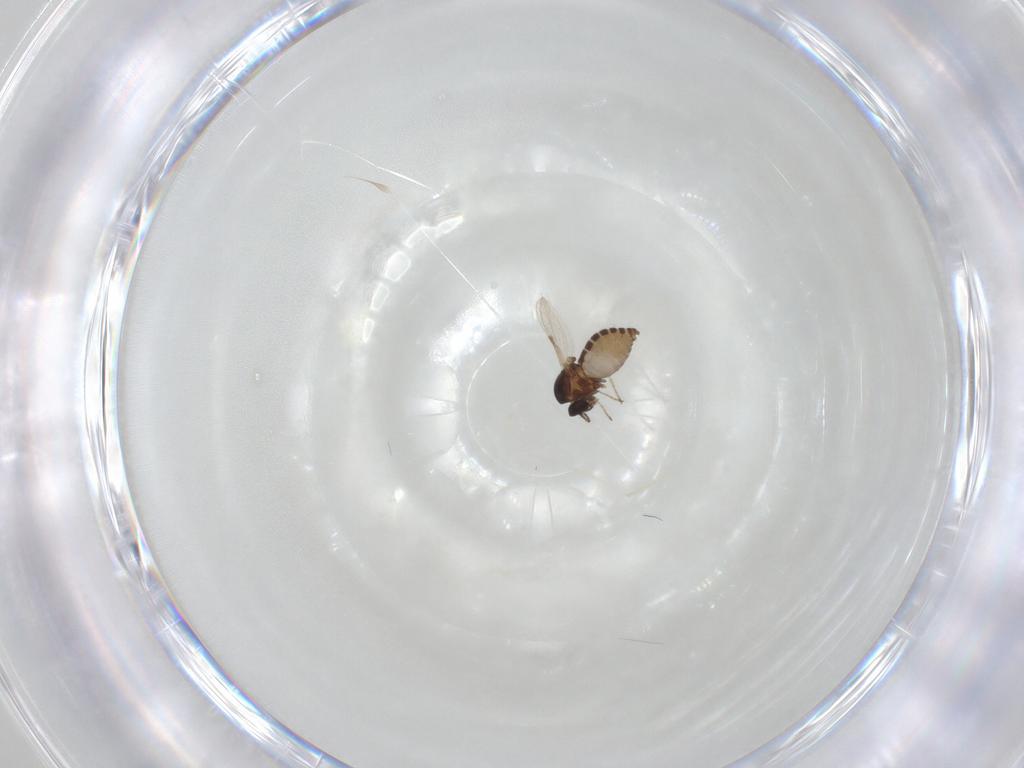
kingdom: Animalia
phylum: Arthropoda
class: Insecta
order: Diptera
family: Ceratopogonidae
